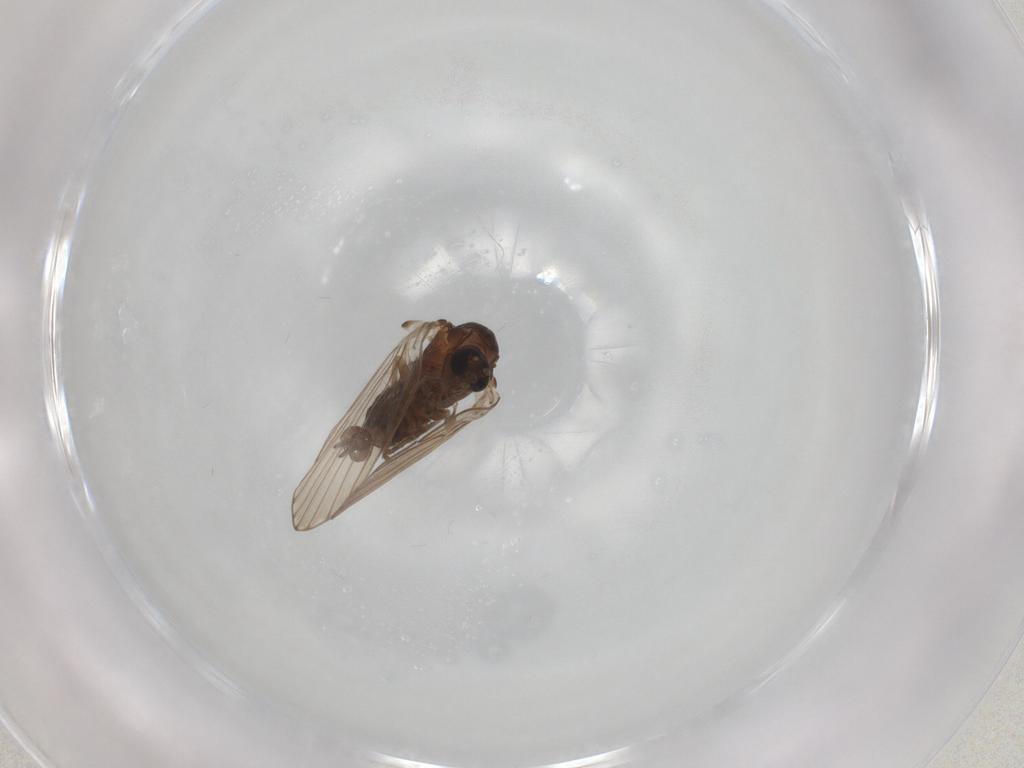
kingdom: Animalia
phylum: Arthropoda
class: Insecta
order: Diptera
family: Psychodidae
